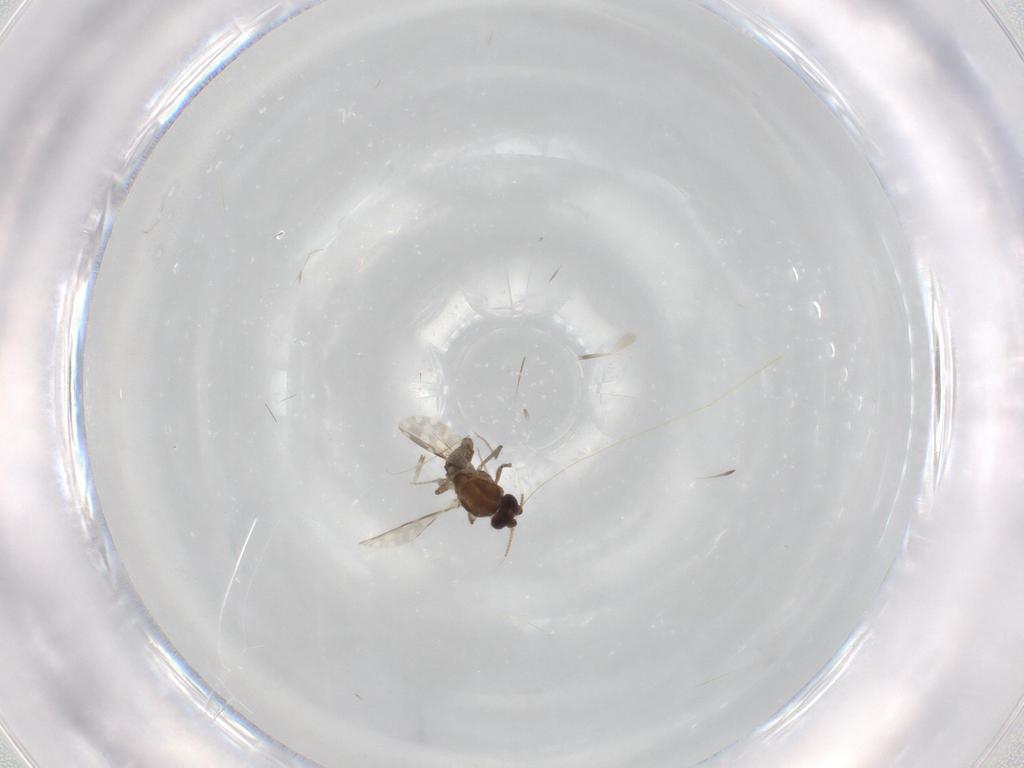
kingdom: Animalia
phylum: Arthropoda
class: Insecta
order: Diptera
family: Ceratopogonidae
